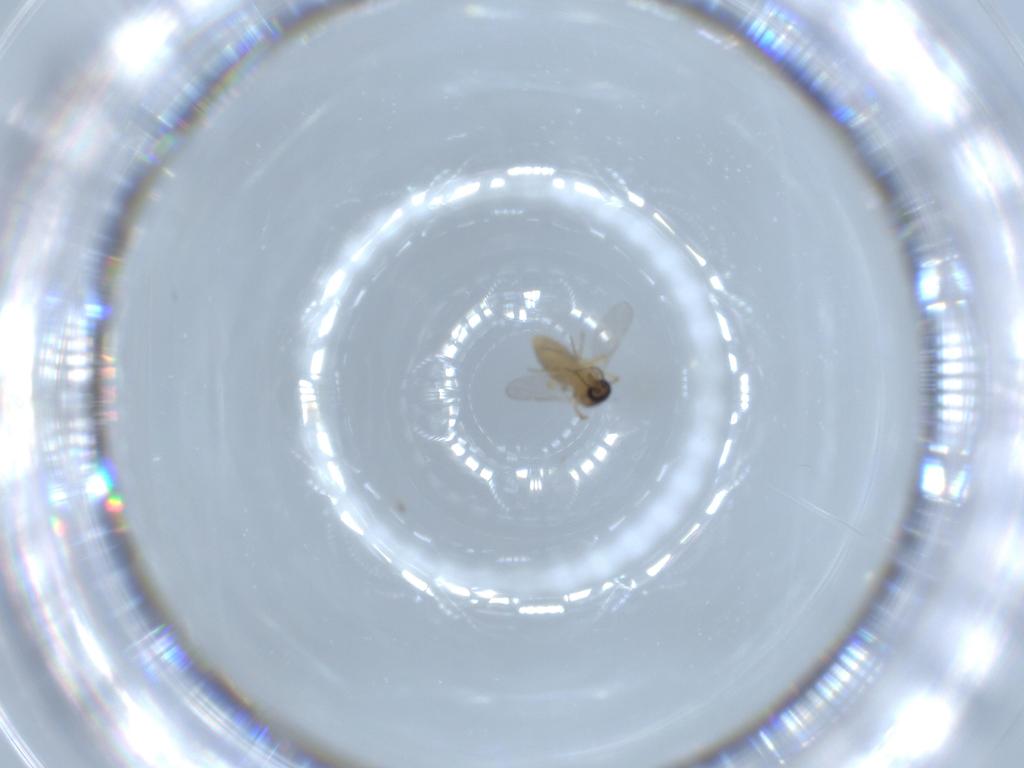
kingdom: Animalia
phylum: Arthropoda
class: Insecta
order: Diptera
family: Ceratopogonidae
